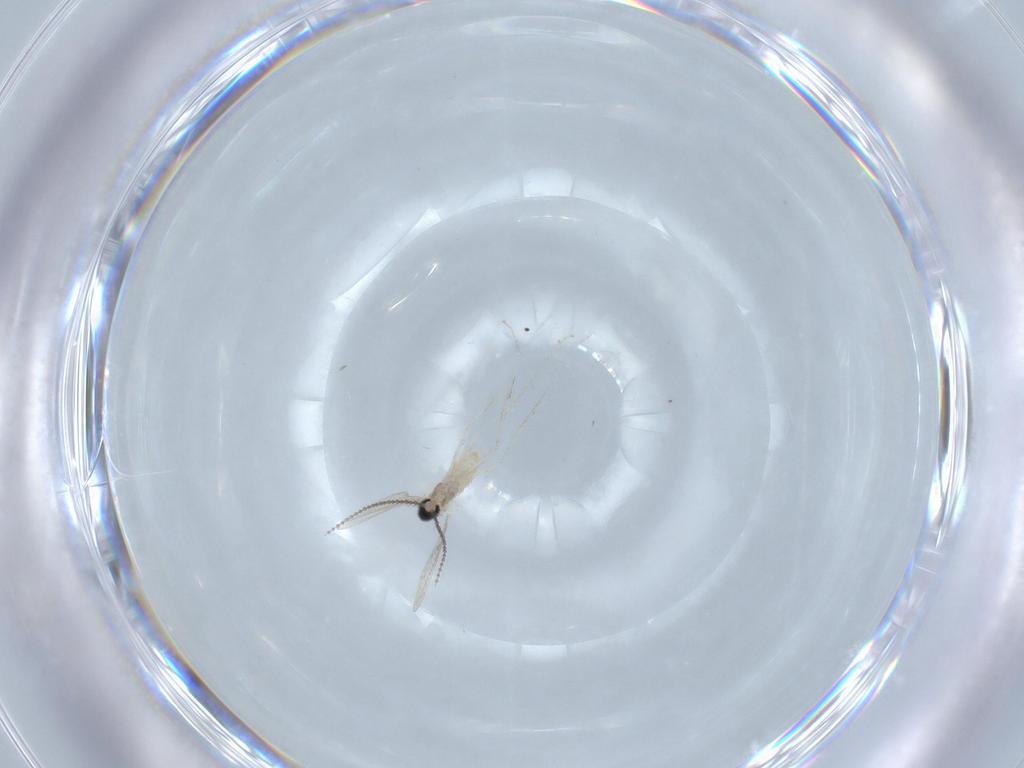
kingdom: Animalia
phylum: Arthropoda
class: Insecta
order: Diptera
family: Cecidomyiidae
